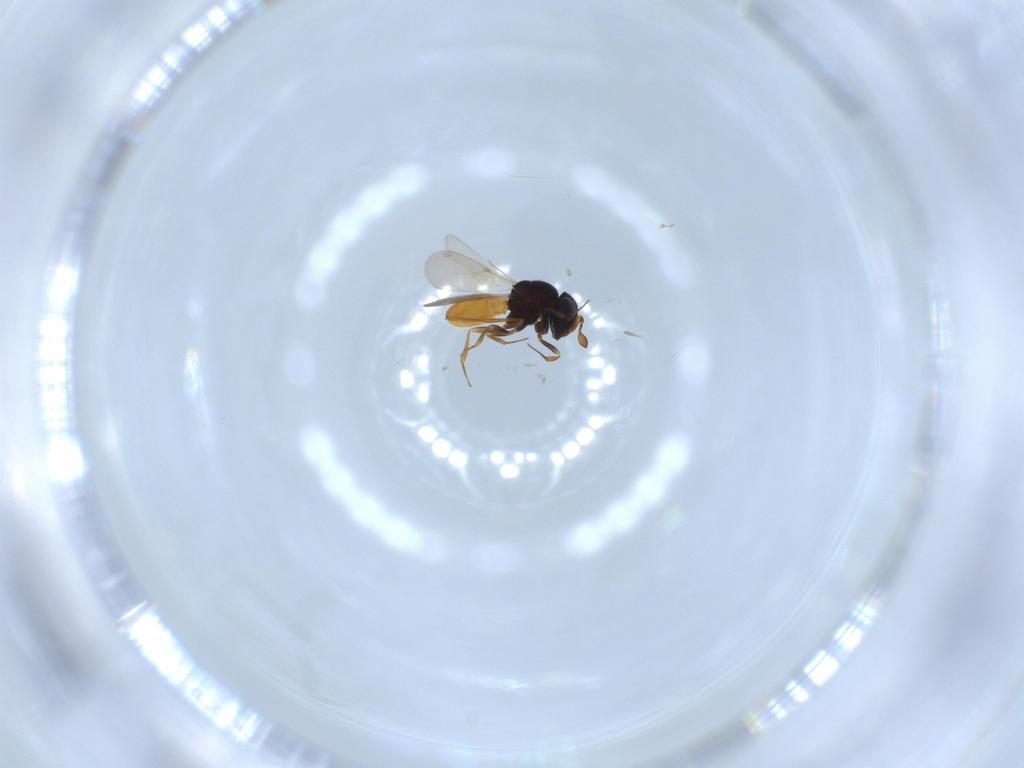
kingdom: Animalia
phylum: Arthropoda
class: Insecta
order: Hymenoptera
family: Scelionidae
